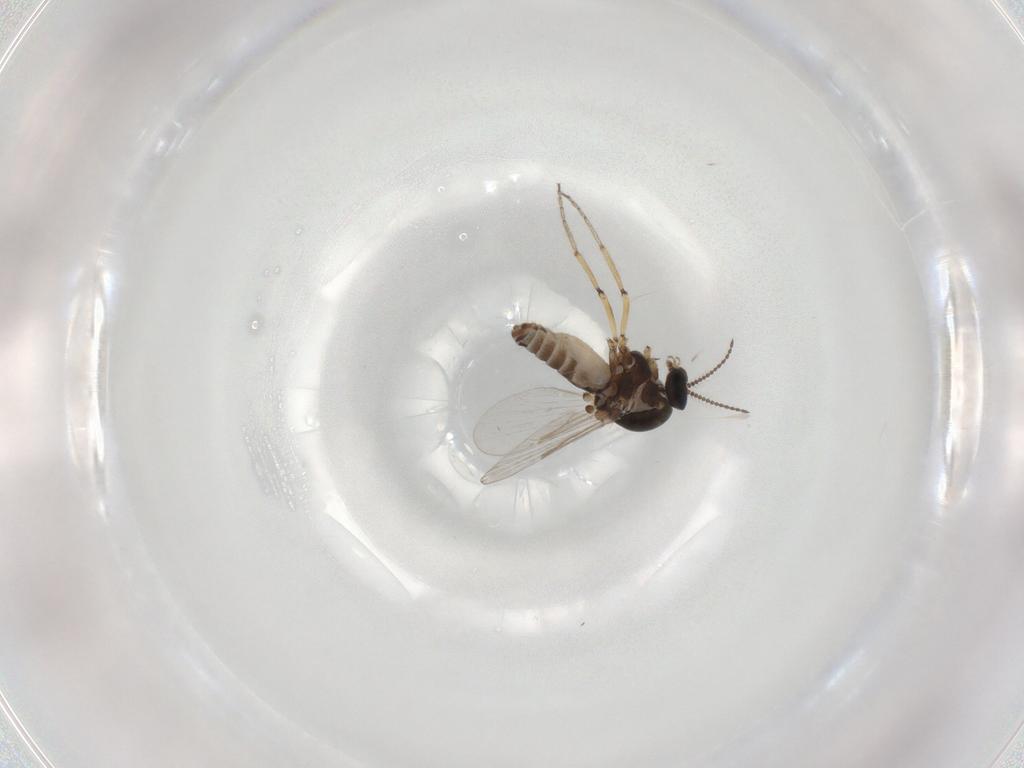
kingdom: Animalia
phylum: Arthropoda
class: Insecta
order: Diptera
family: Ceratopogonidae
